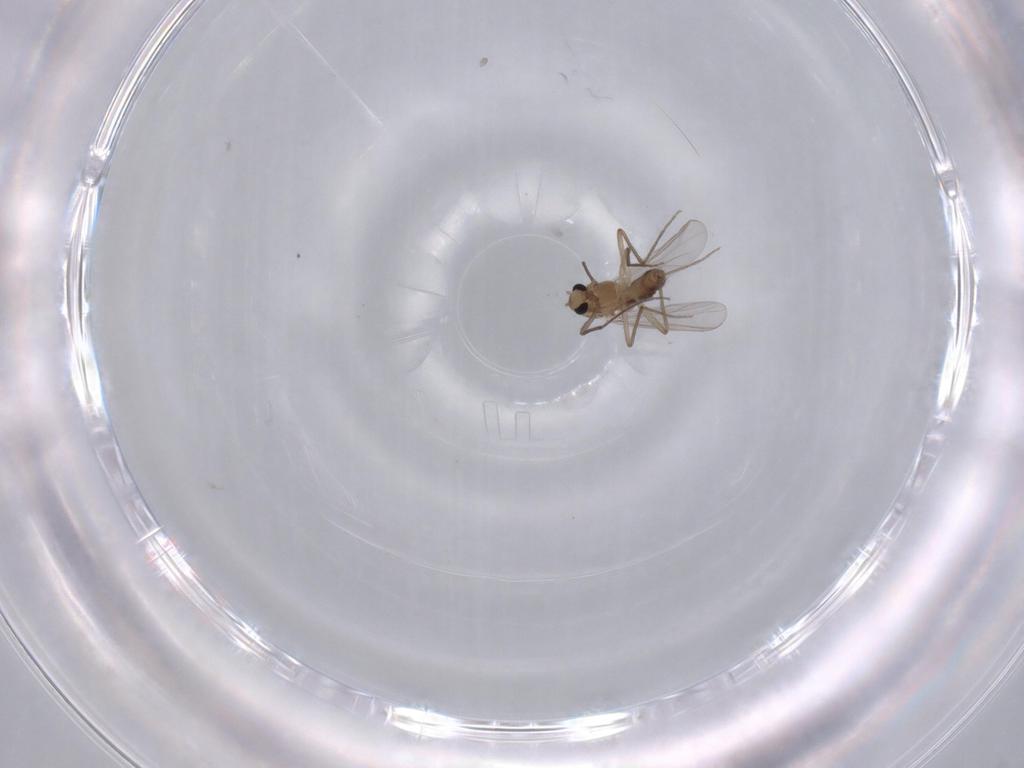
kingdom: Animalia
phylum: Arthropoda
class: Insecta
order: Diptera
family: Chironomidae
